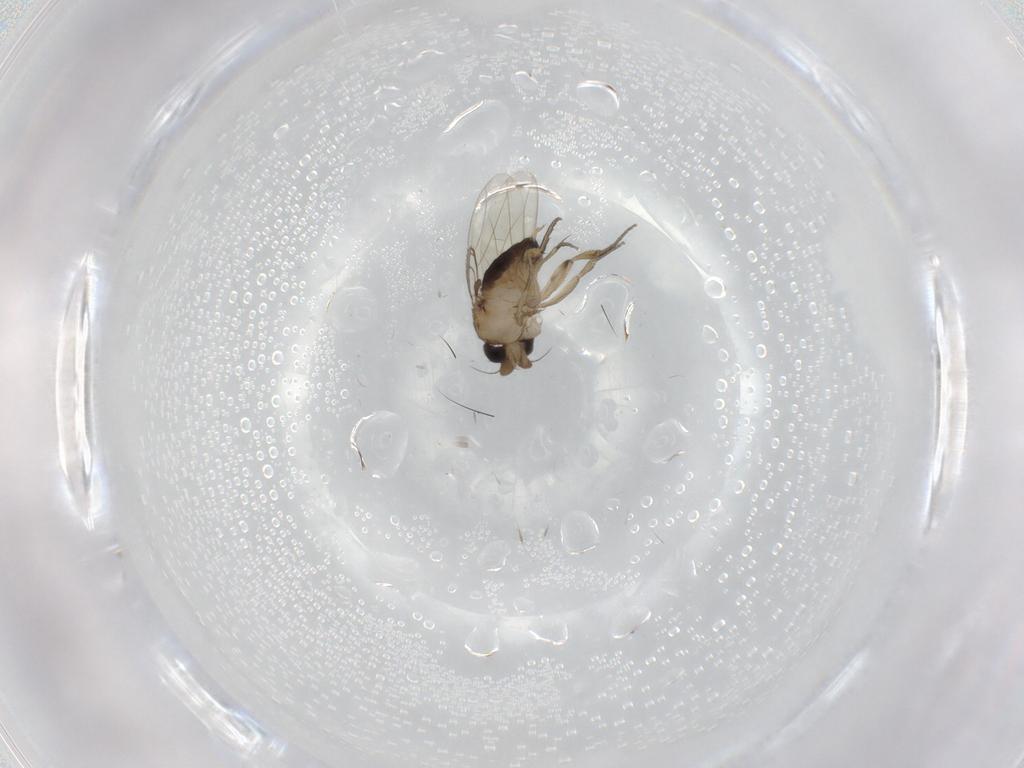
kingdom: Animalia
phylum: Arthropoda
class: Insecta
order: Diptera
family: Phoridae
